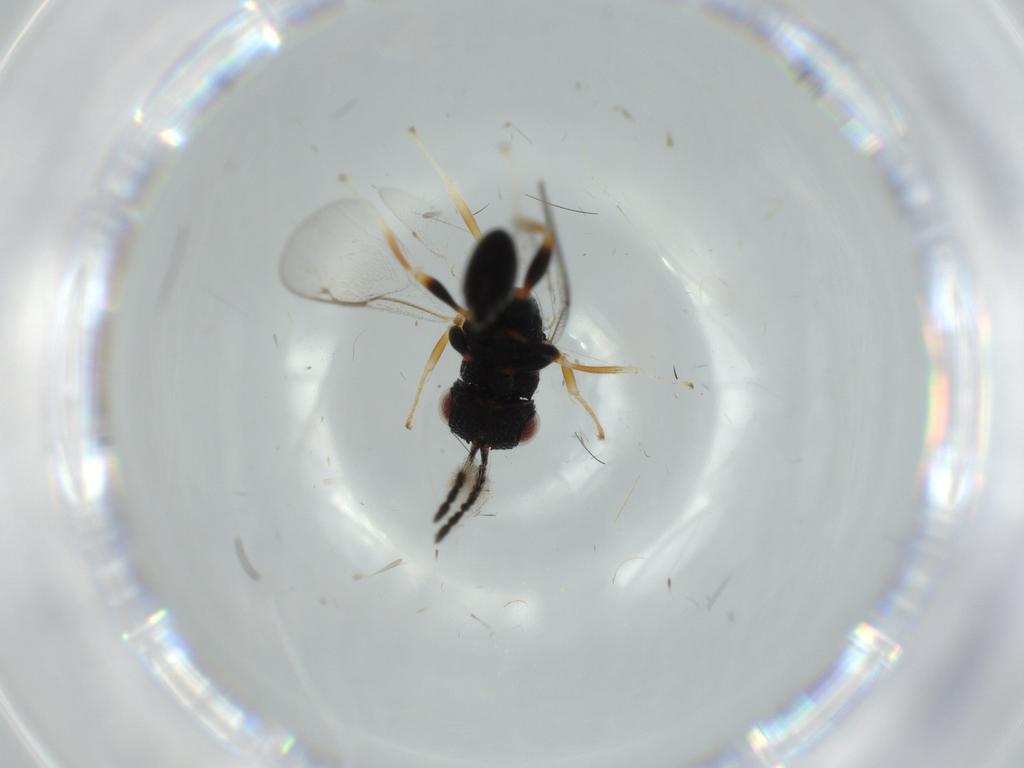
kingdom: Animalia
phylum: Arthropoda
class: Insecta
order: Hymenoptera
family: Eurytomidae
